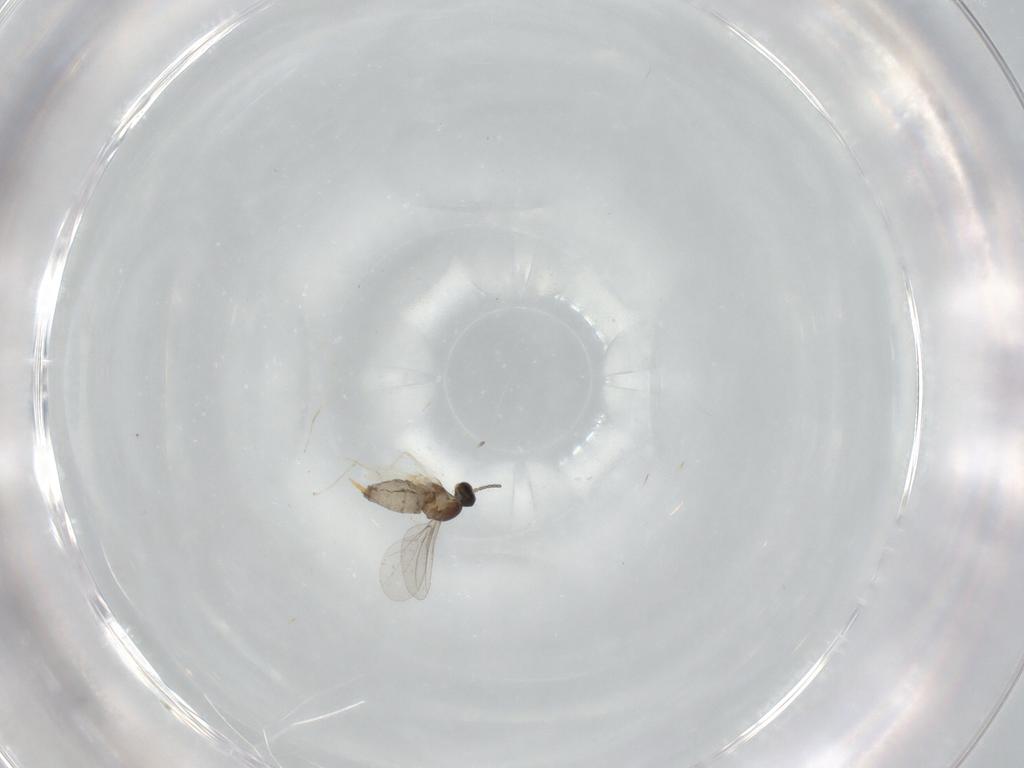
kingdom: Animalia
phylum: Arthropoda
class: Insecta
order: Diptera
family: Cecidomyiidae
